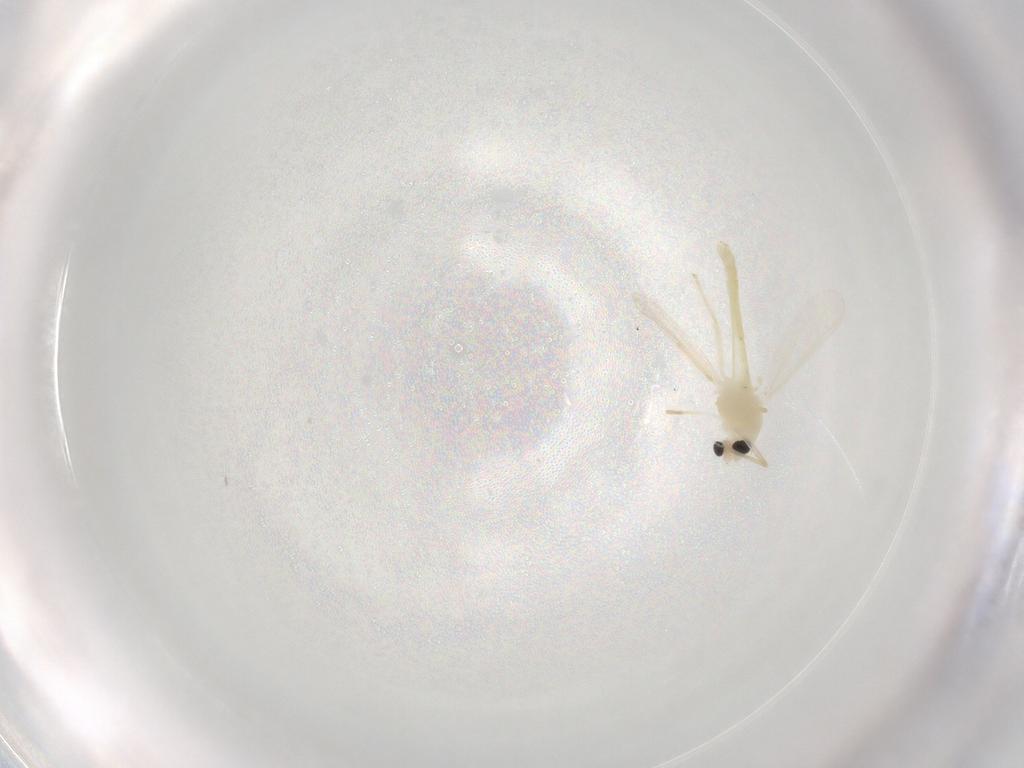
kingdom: Animalia
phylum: Arthropoda
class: Insecta
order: Diptera
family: Chironomidae
